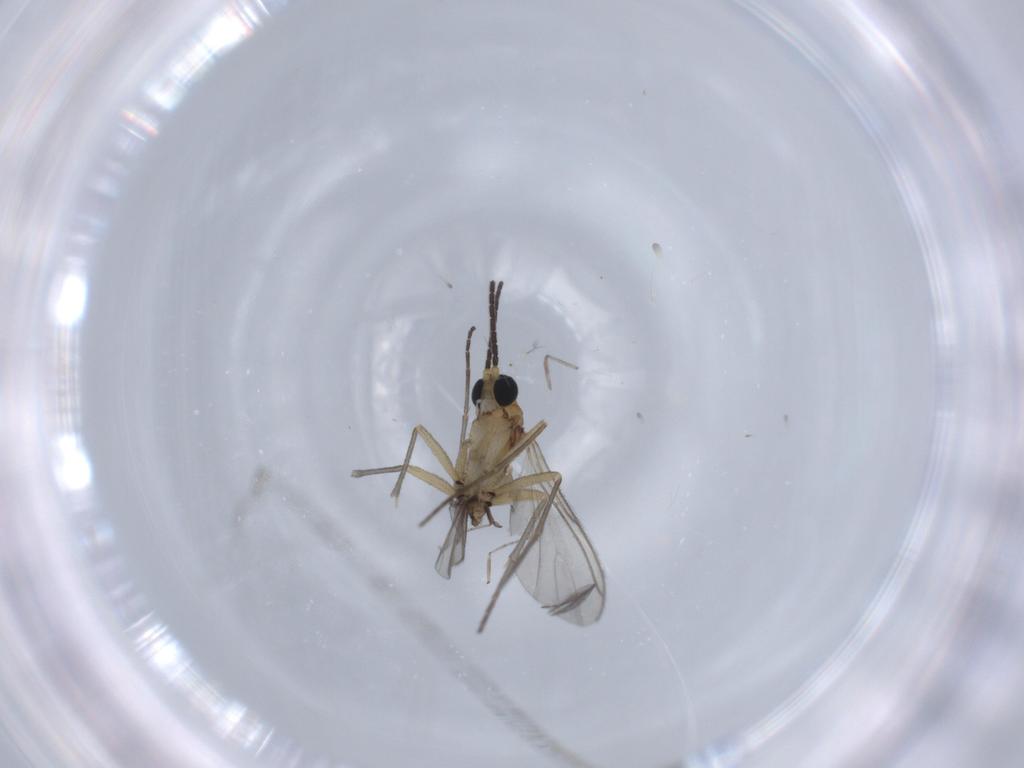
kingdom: Animalia
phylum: Arthropoda
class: Insecta
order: Diptera
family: Sciaridae
